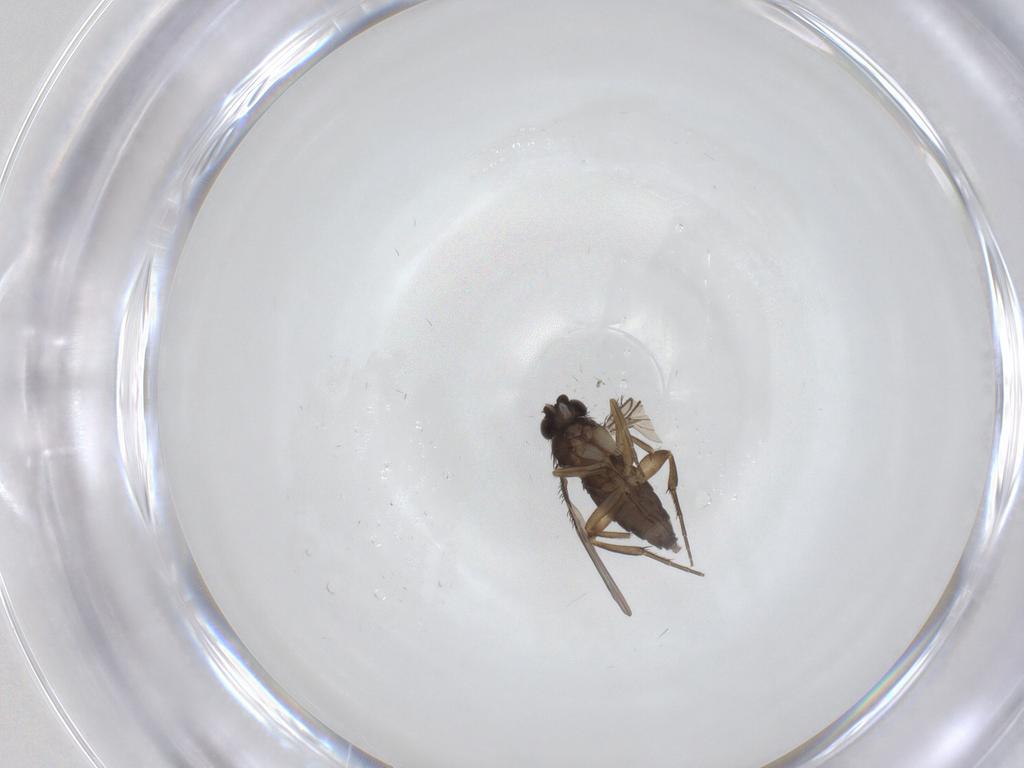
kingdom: Animalia
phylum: Arthropoda
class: Insecta
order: Diptera
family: Phoridae
